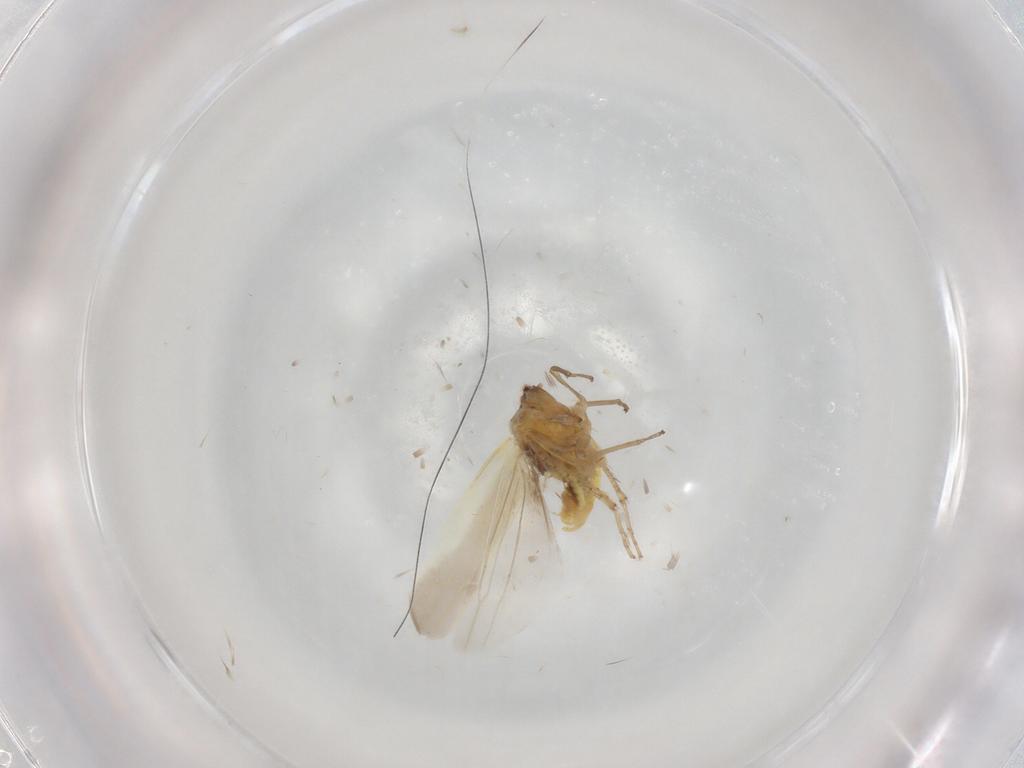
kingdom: Animalia
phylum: Arthropoda
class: Insecta
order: Hemiptera
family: Cicadellidae
